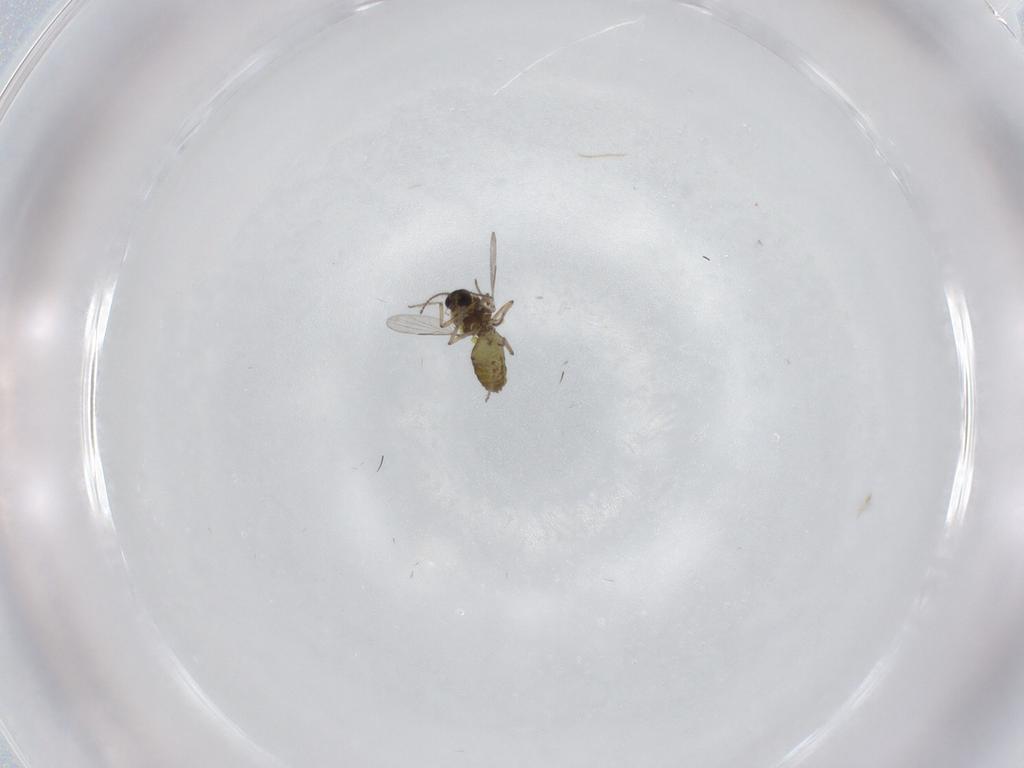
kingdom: Animalia
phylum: Arthropoda
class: Insecta
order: Diptera
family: Ceratopogonidae
